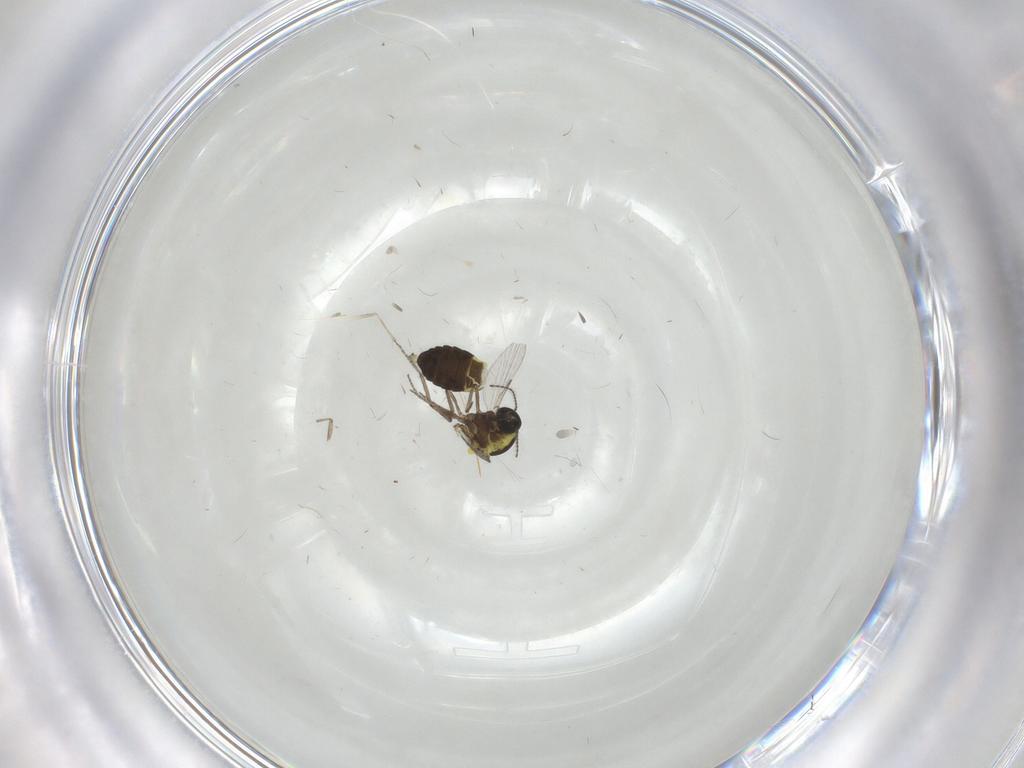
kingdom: Animalia
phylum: Arthropoda
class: Insecta
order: Diptera
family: Ceratopogonidae
